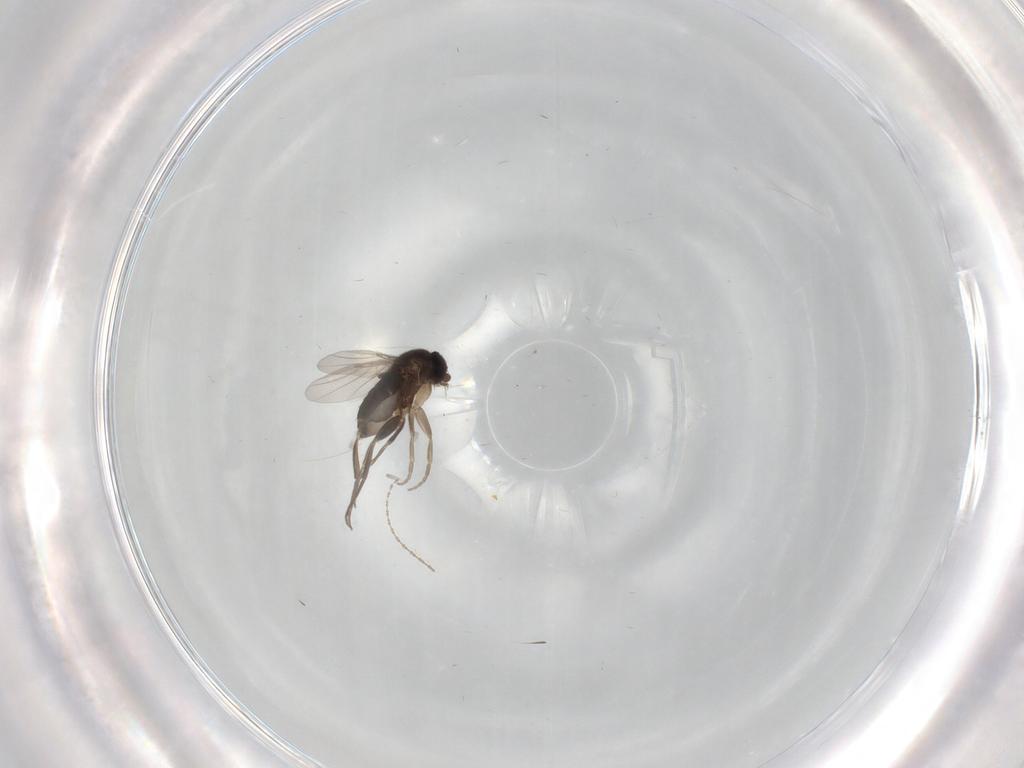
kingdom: Animalia
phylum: Arthropoda
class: Insecta
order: Diptera
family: Phoridae
